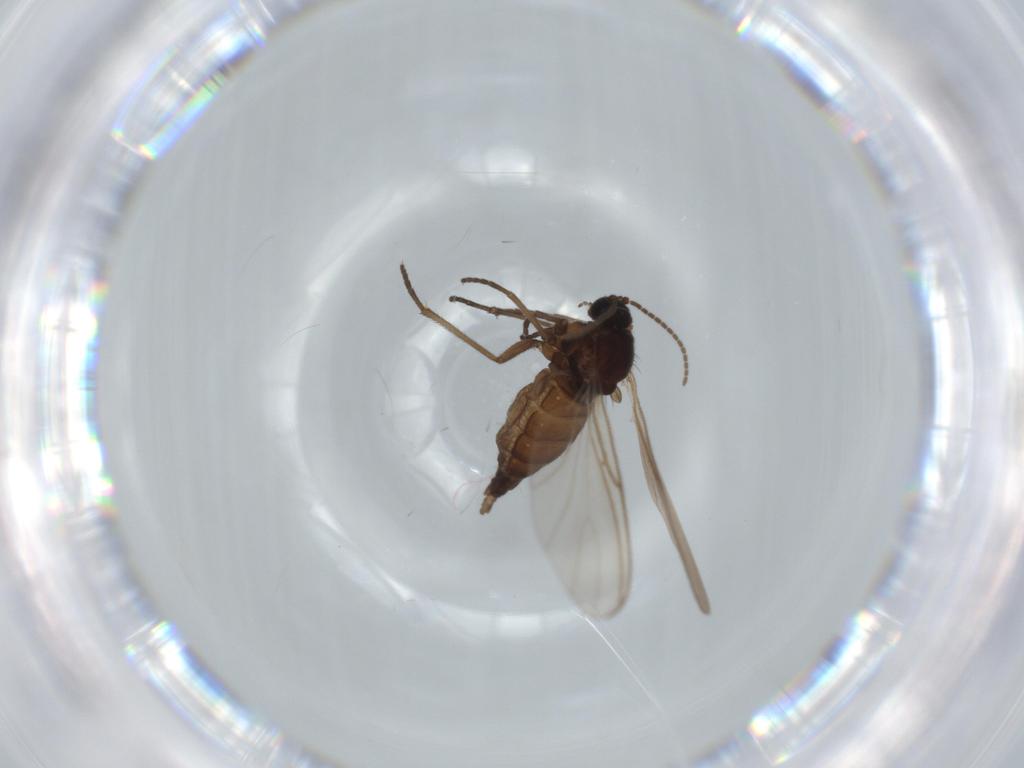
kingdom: Animalia
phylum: Arthropoda
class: Insecta
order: Diptera
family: Sciaridae
